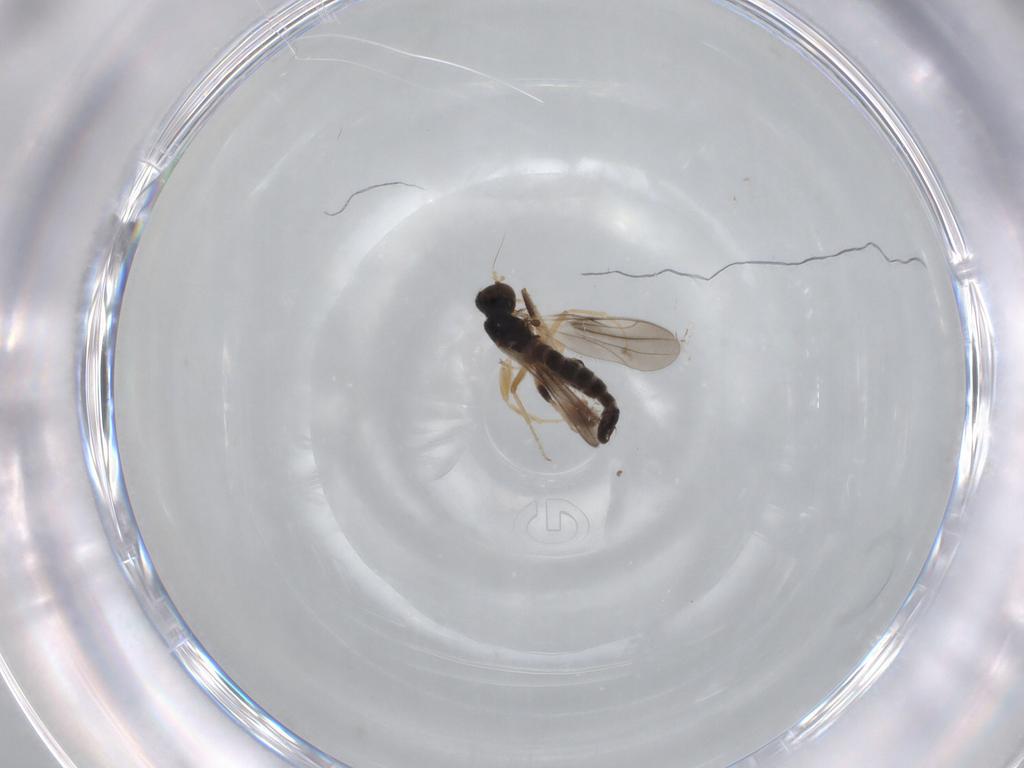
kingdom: Animalia
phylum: Arthropoda
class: Insecta
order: Diptera
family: Hybotidae
